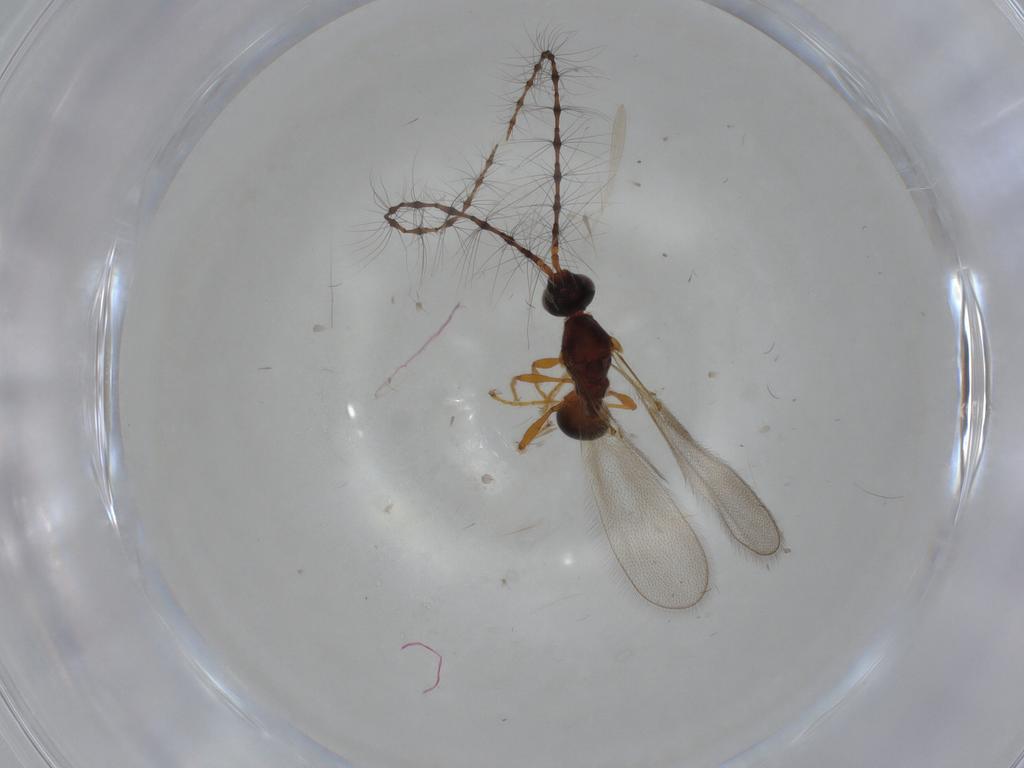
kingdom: Animalia
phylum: Arthropoda
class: Insecta
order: Hymenoptera
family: Diapriidae
